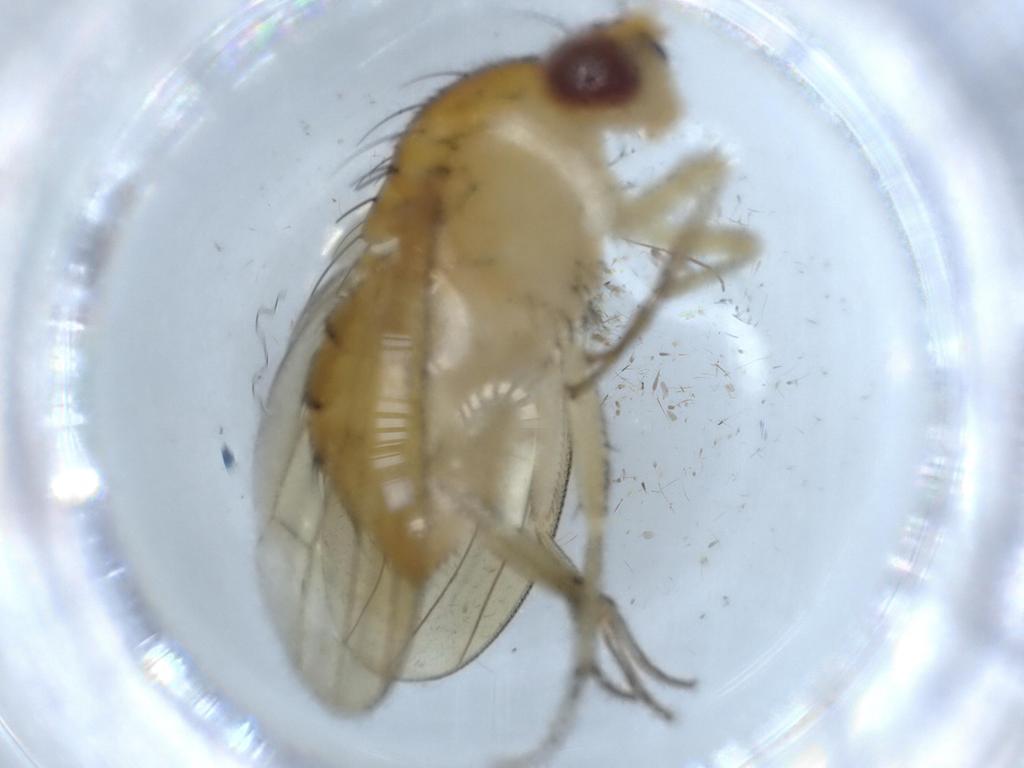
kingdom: Animalia
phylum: Arthropoda
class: Insecta
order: Diptera
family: Cecidomyiidae
